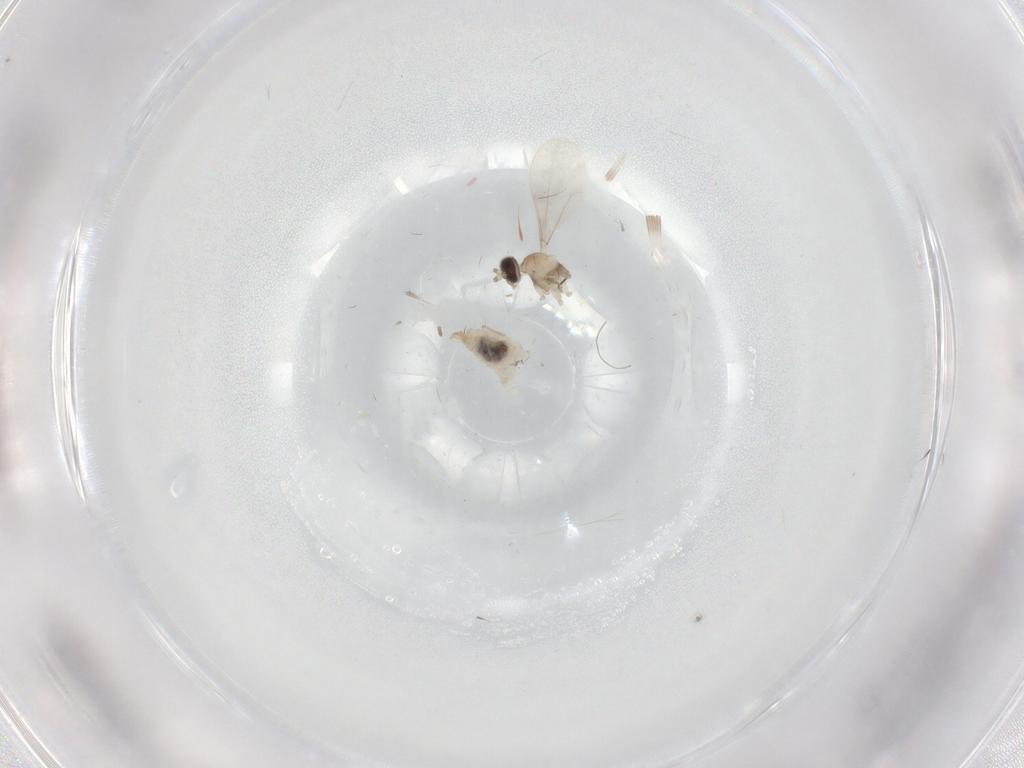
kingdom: Animalia
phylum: Arthropoda
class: Insecta
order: Diptera
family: Cecidomyiidae
